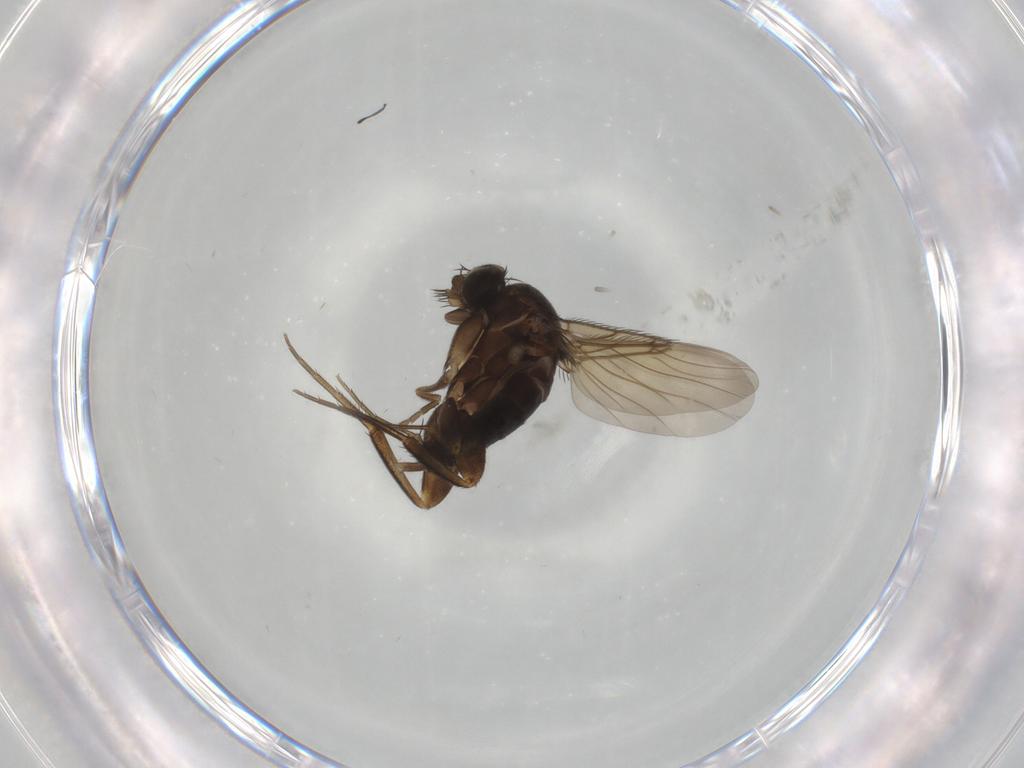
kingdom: Animalia
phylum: Arthropoda
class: Insecta
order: Diptera
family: Phoridae
